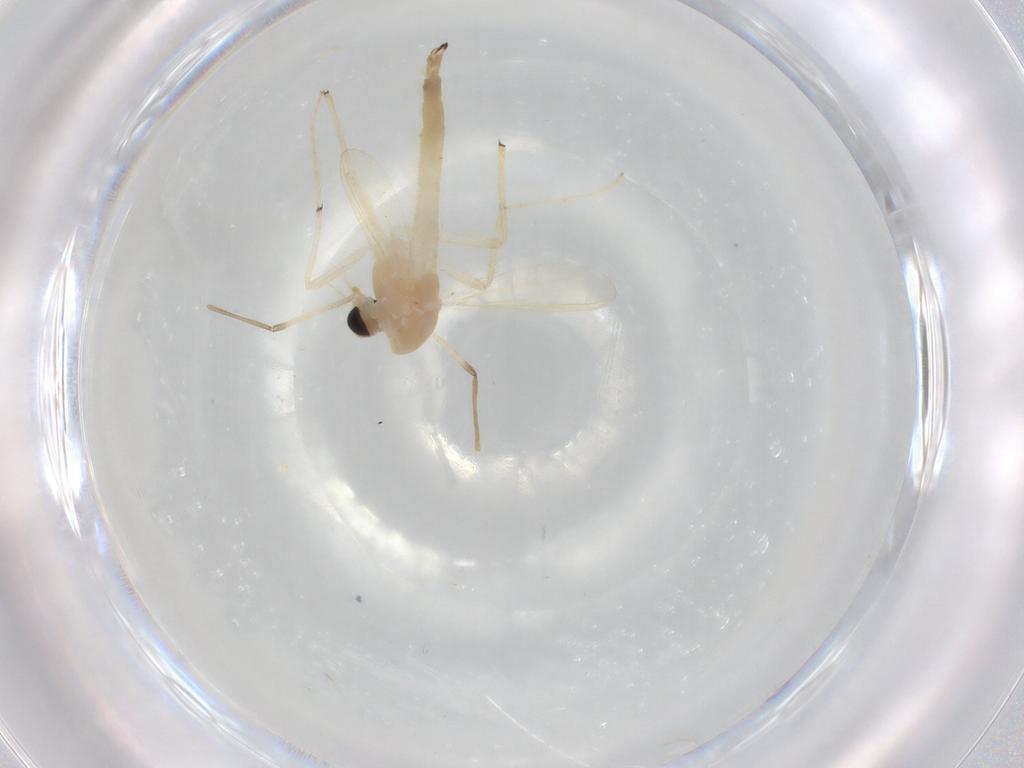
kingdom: Animalia
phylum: Arthropoda
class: Insecta
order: Diptera
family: Chironomidae
